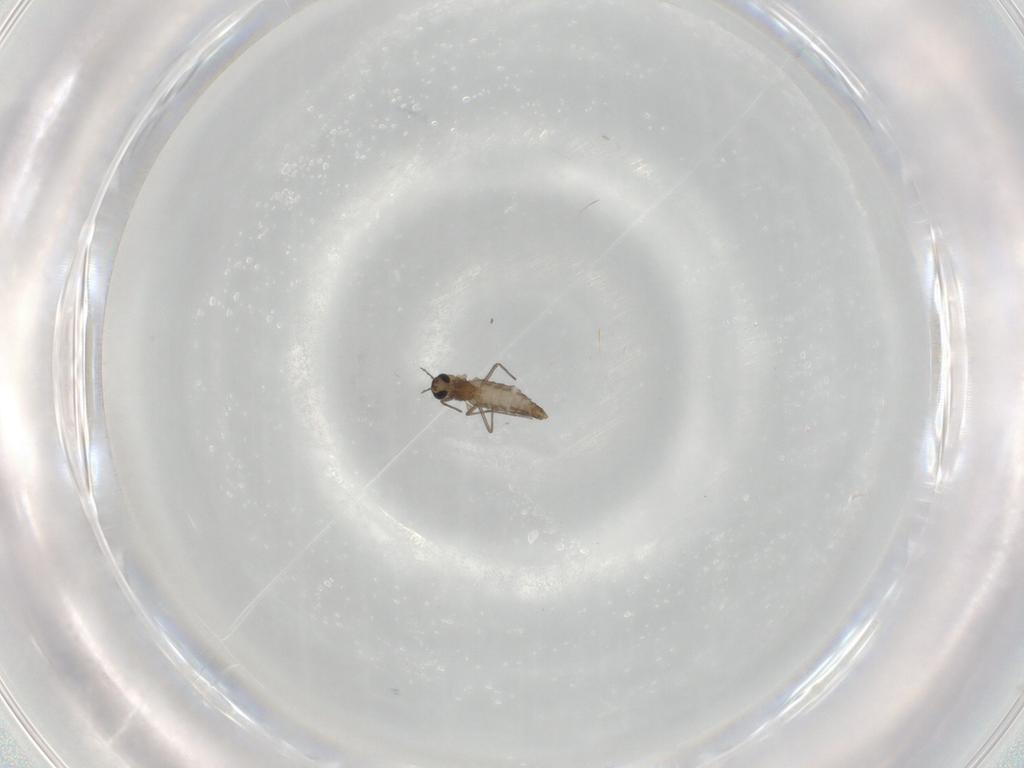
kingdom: Animalia
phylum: Arthropoda
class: Insecta
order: Diptera
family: Chironomidae
